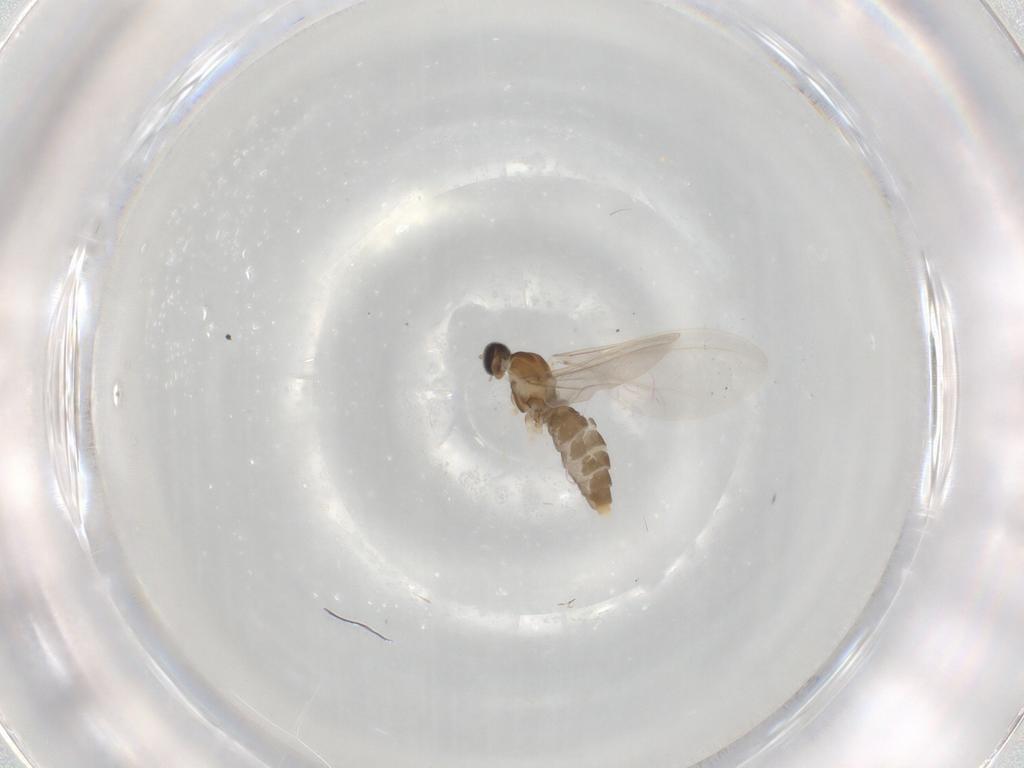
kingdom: Animalia
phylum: Arthropoda
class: Insecta
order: Diptera
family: Cecidomyiidae
